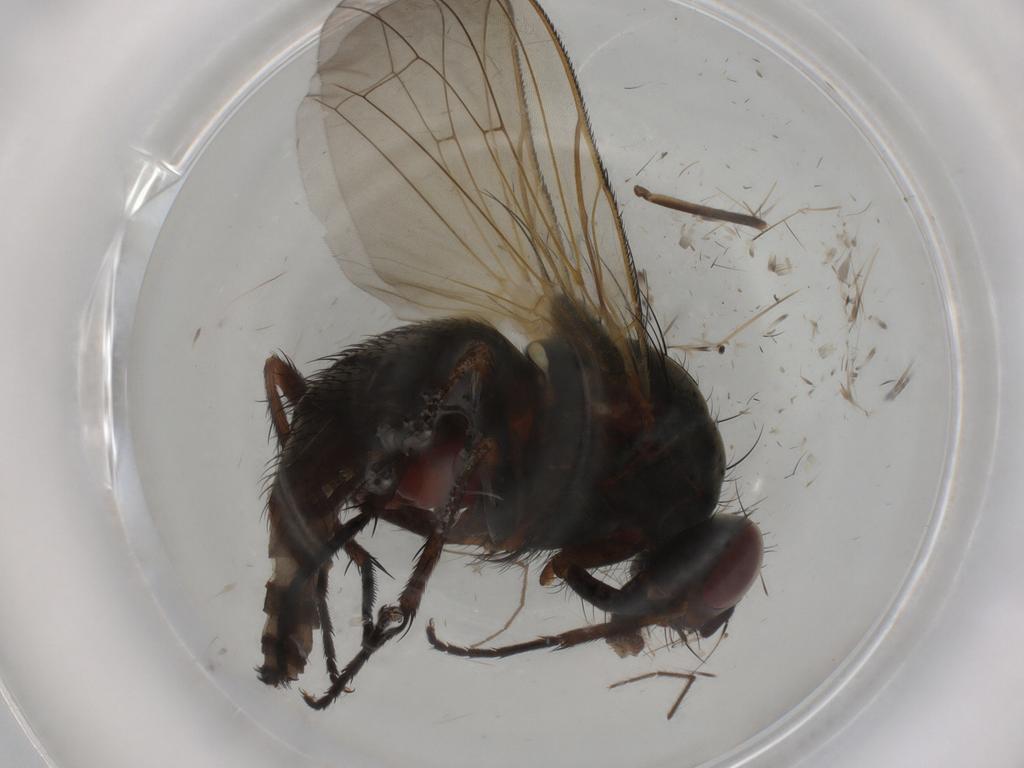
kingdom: Animalia
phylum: Arthropoda
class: Insecta
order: Diptera
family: Anthomyiidae
